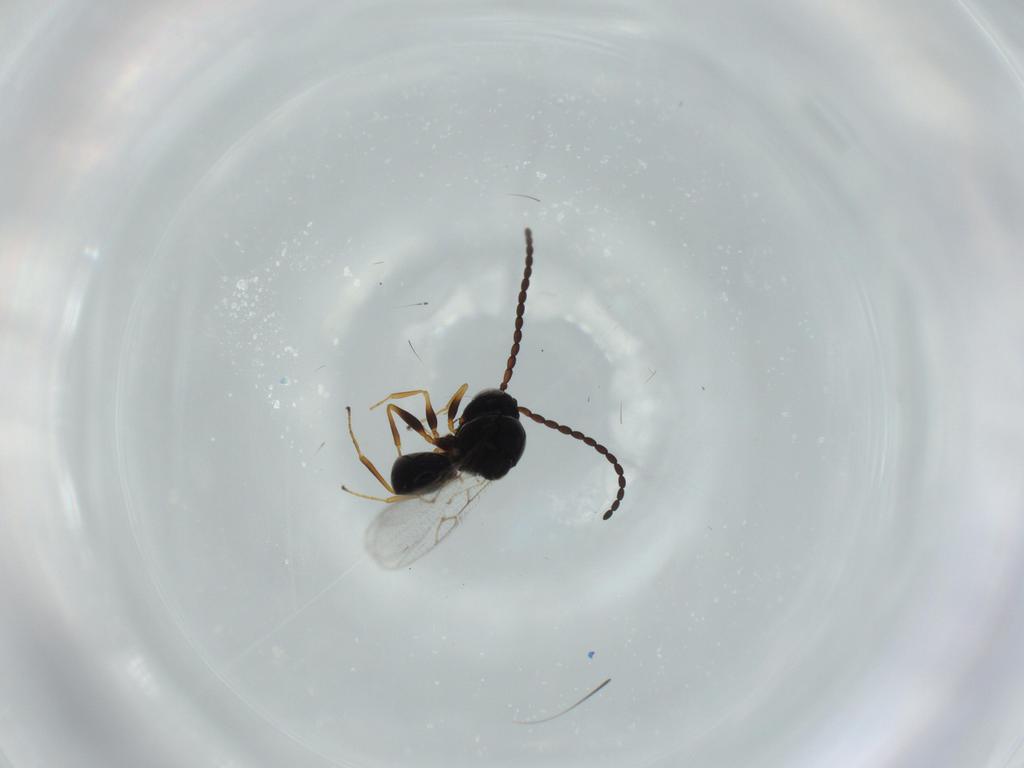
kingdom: Animalia
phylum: Arthropoda
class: Insecta
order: Hymenoptera
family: Figitidae
